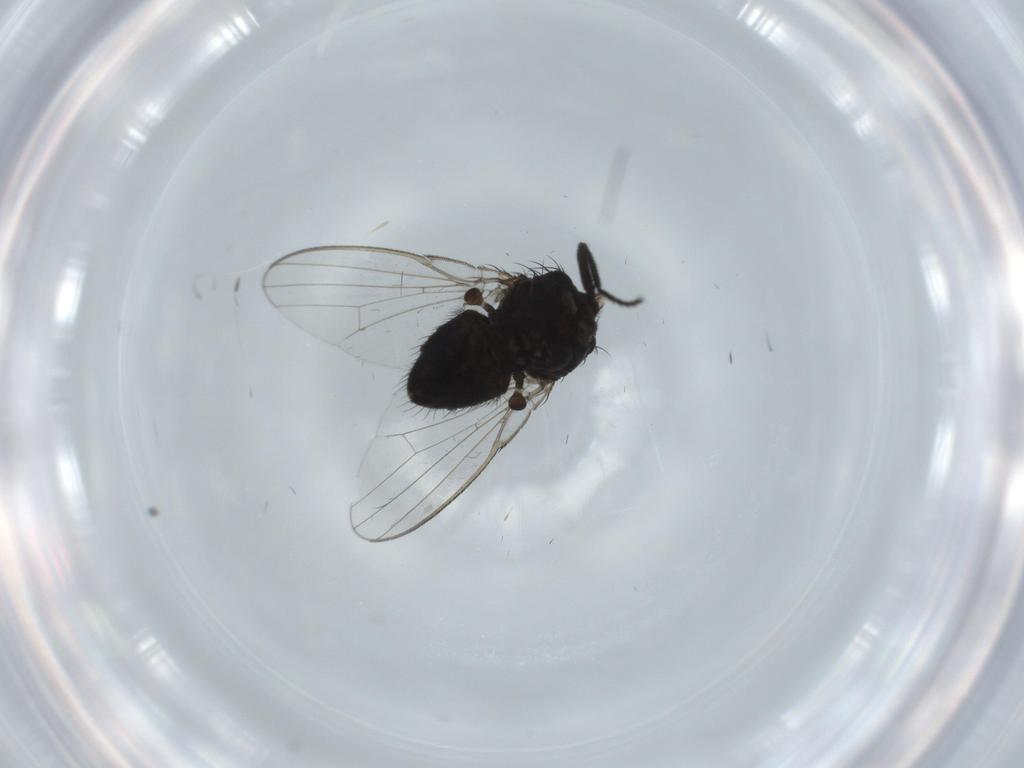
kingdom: Animalia
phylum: Arthropoda
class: Insecta
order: Diptera
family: Milichiidae
